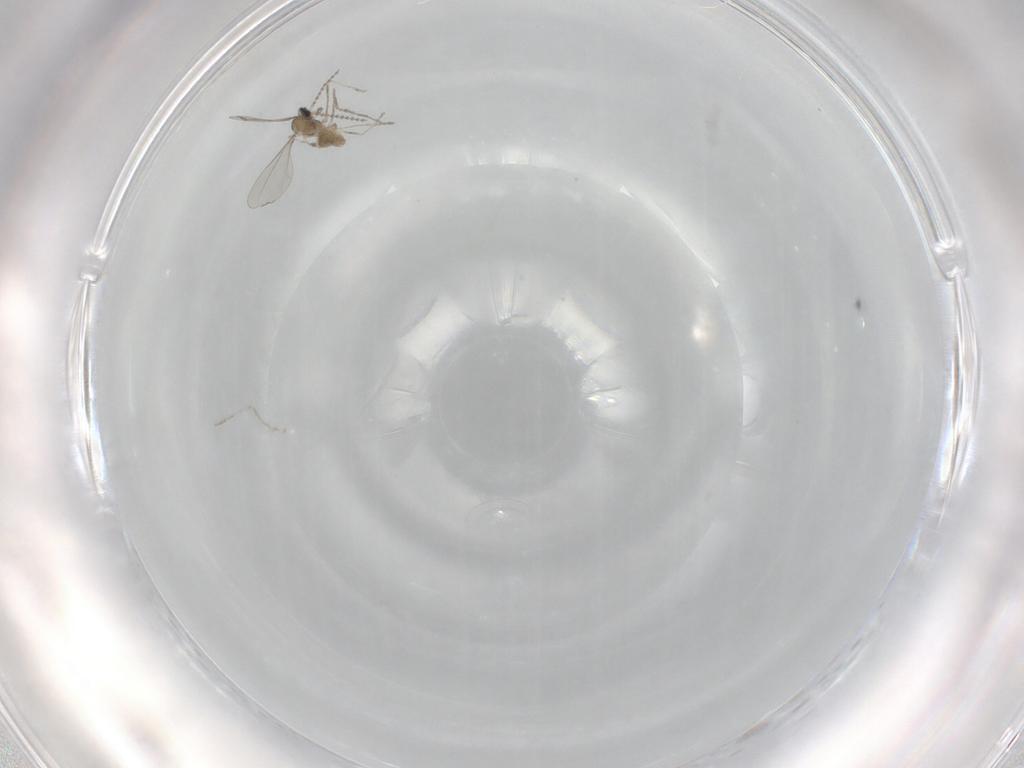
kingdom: Animalia
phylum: Arthropoda
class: Insecta
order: Diptera
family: Cecidomyiidae
